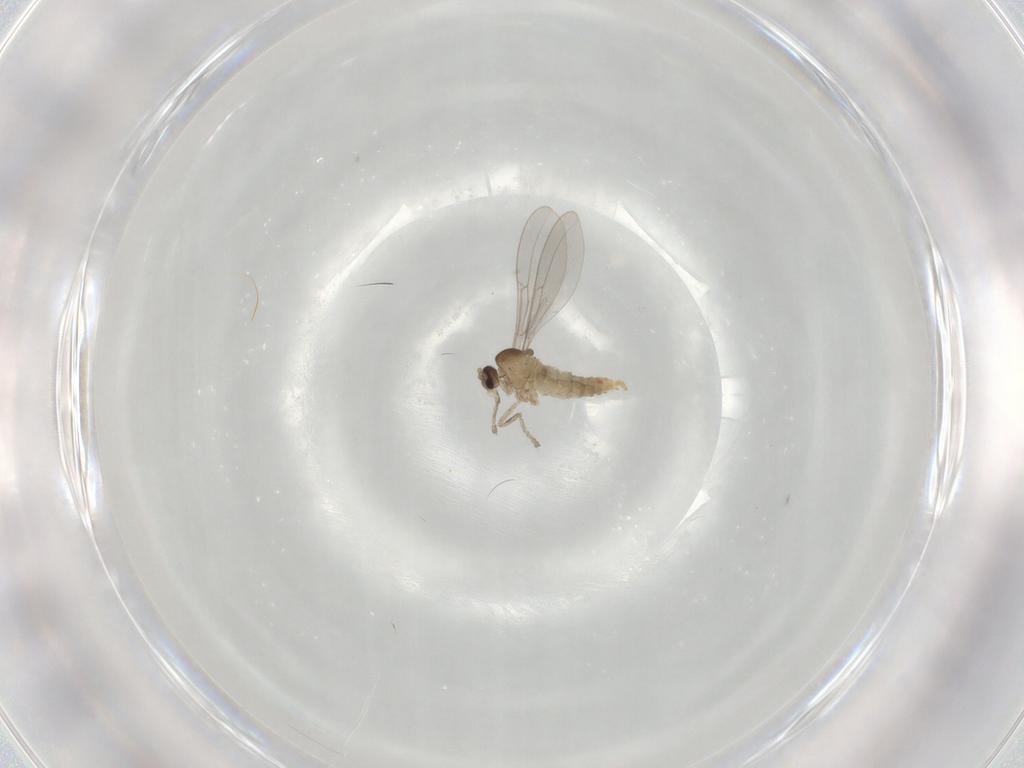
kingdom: Animalia
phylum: Arthropoda
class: Insecta
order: Diptera
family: Cecidomyiidae
